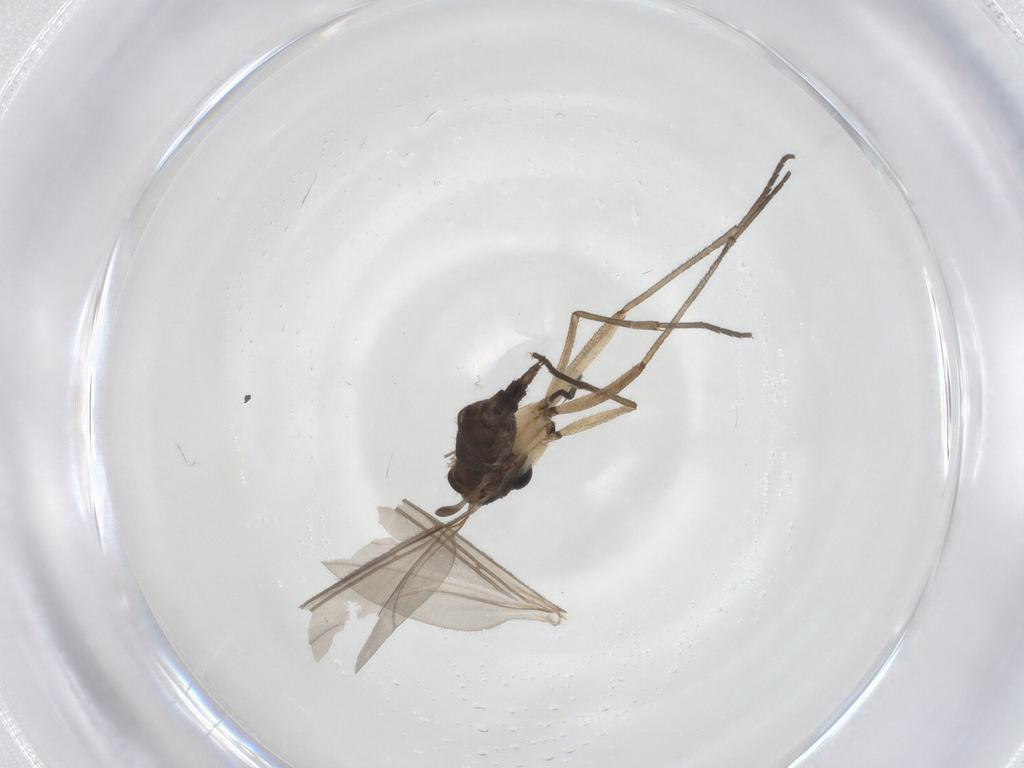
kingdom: Animalia
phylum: Arthropoda
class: Insecta
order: Diptera
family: Sciaridae
